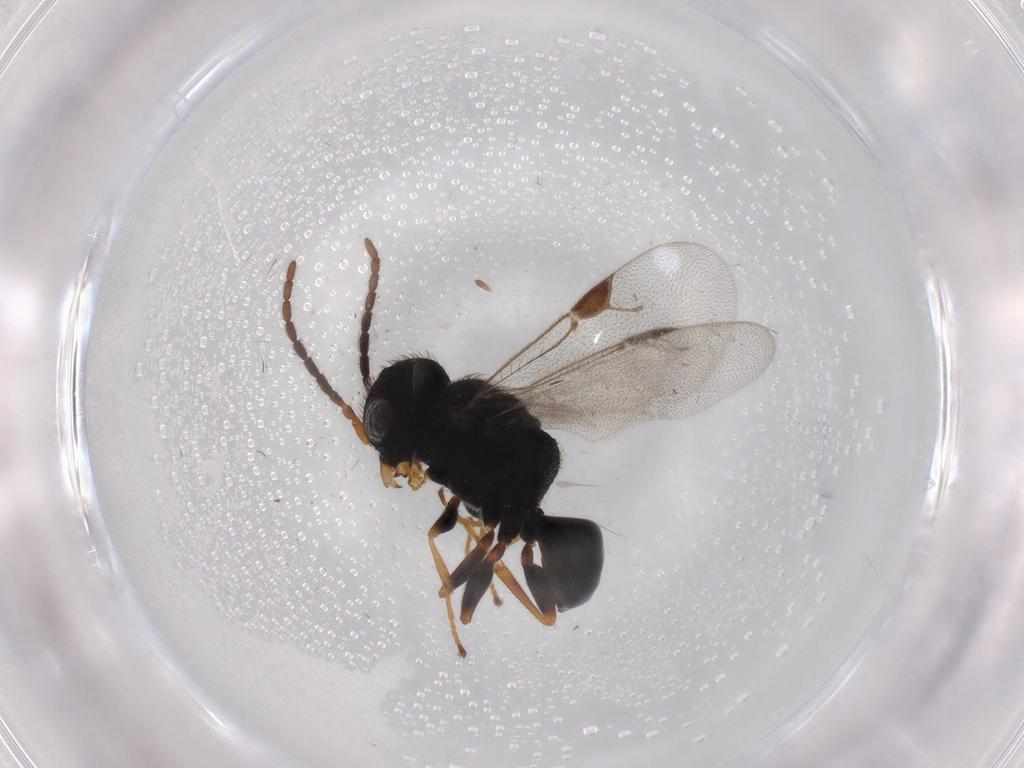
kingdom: Animalia
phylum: Arthropoda
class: Insecta
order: Hymenoptera
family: Dryinidae
